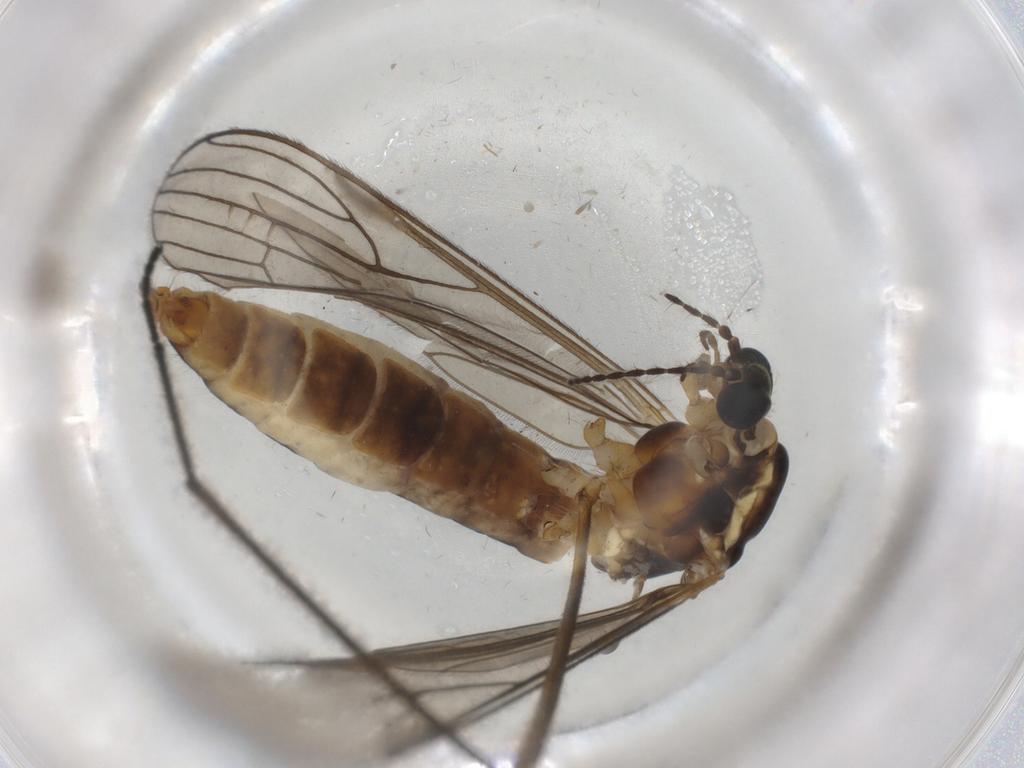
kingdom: Animalia
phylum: Arthropoda
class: Insecta
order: Diptera
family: Limoniidae
